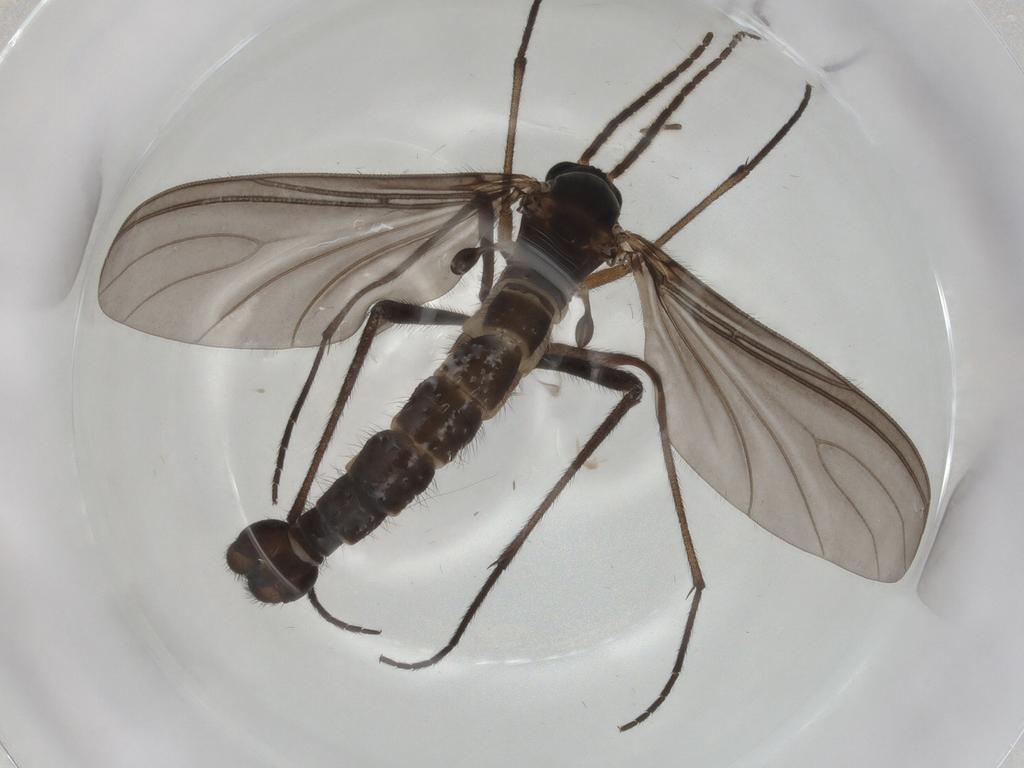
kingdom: Animalia
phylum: Arthropoda
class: Insecta
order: Diptera
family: Sciaridae
